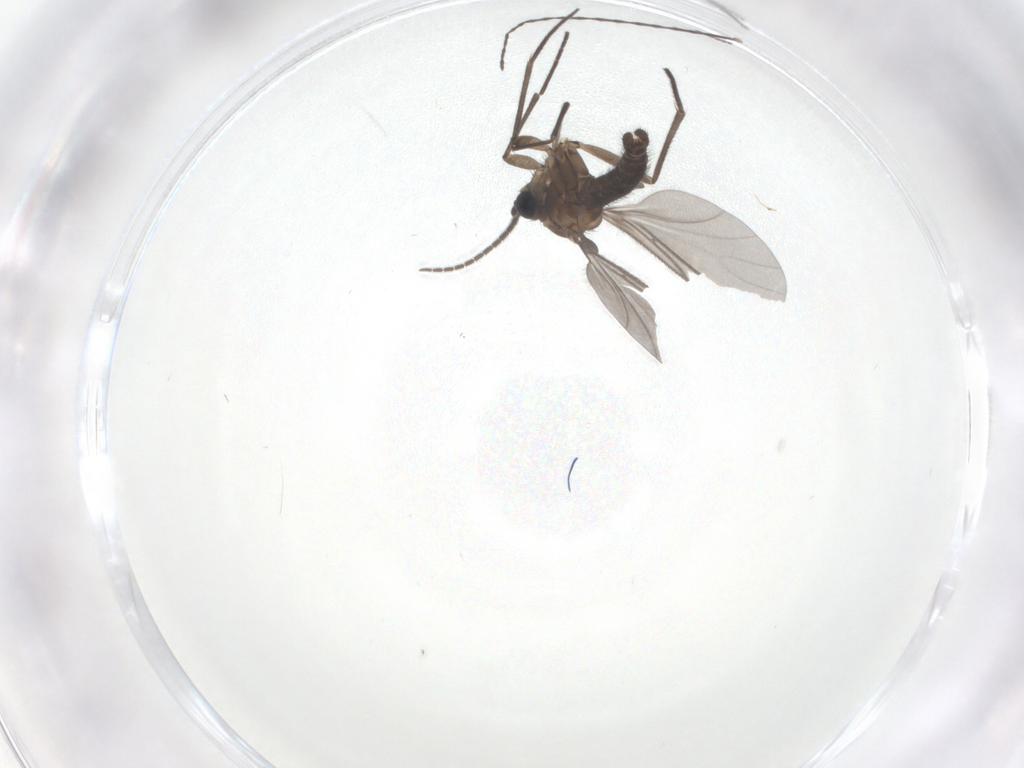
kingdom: Animalia
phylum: Arthropoda
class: Insecta
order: Diptera
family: Sciaridae
